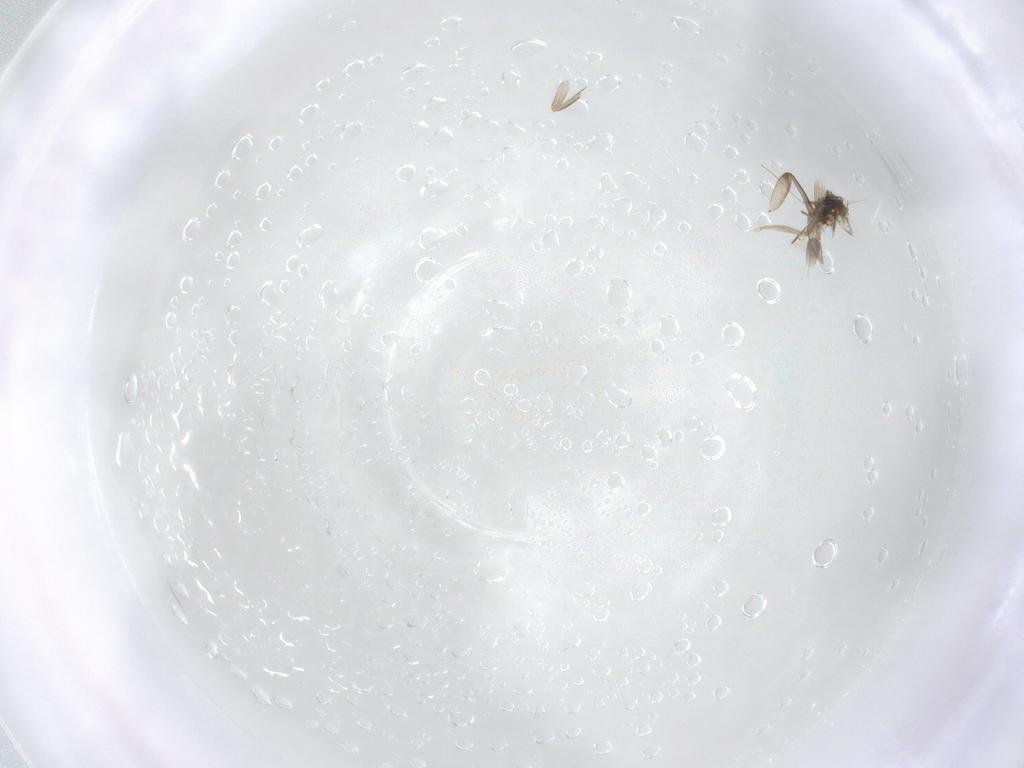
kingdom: Animalia
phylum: Arthropoda
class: Insecta
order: Diptera
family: Phoridae
